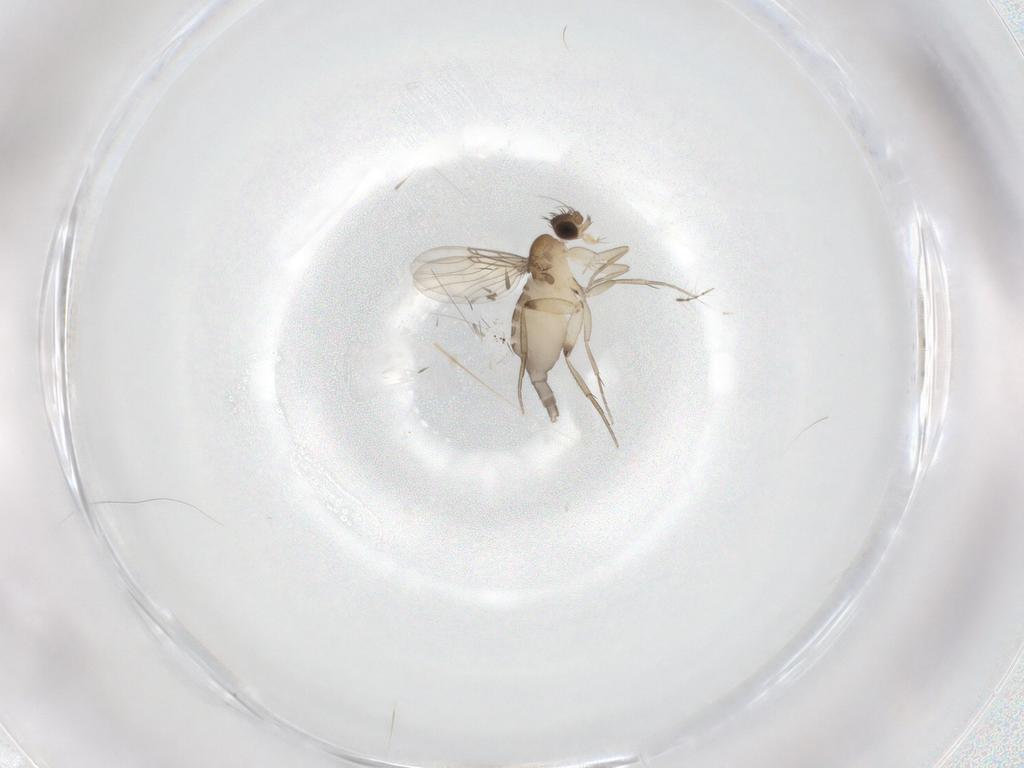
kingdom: Animalia
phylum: Arthropoda
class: Insecta
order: Diptera
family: Phoridae
